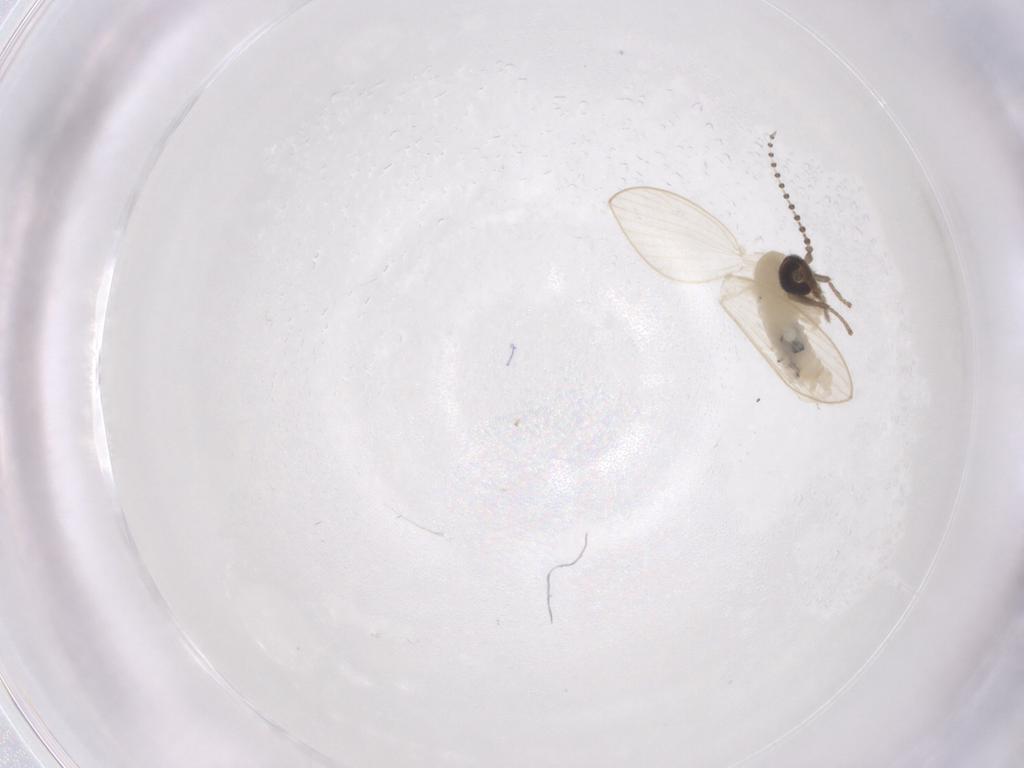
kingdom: Animalia
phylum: Arthropoda
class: Insecta
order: Diptera
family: Psychodidae
